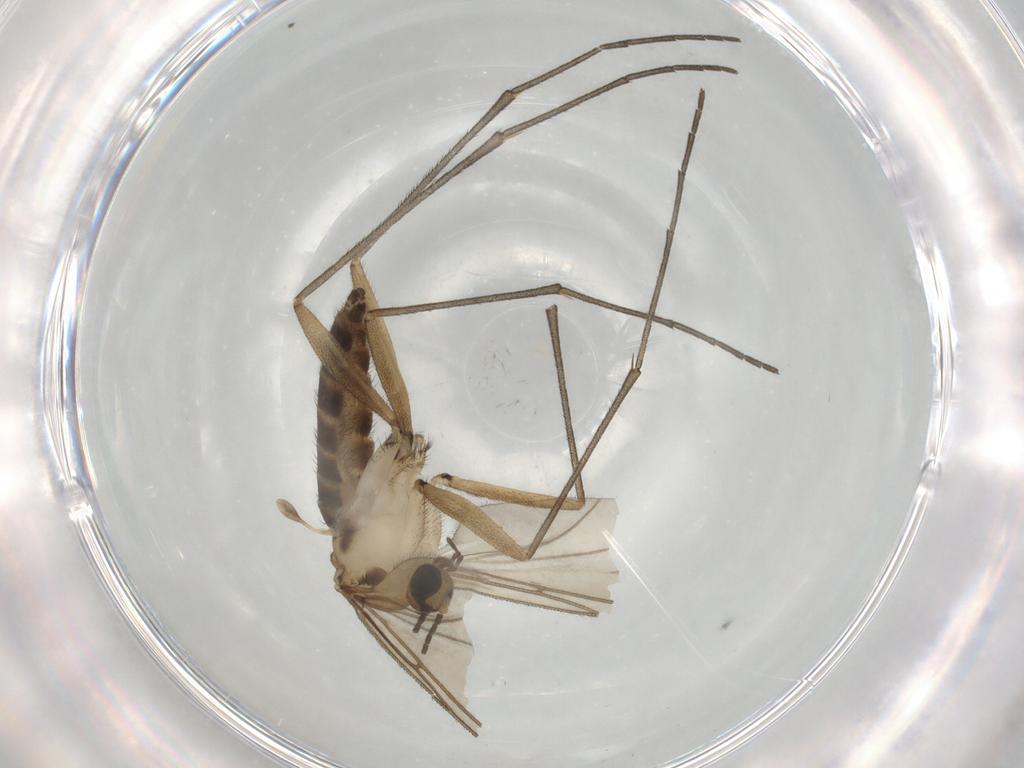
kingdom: Animalia
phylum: Arthropoda
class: Insecta
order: Diptera
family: Sciaridae
